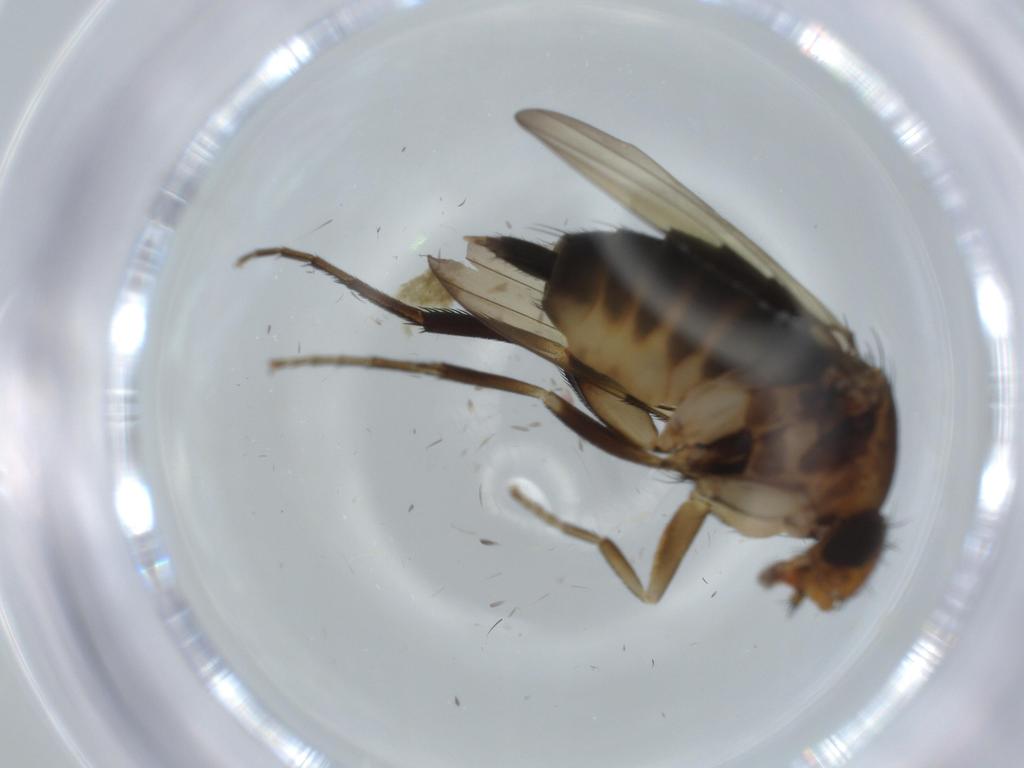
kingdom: Animalia
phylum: Arthropoda
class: Insecta
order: Diptera
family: Phoridae
